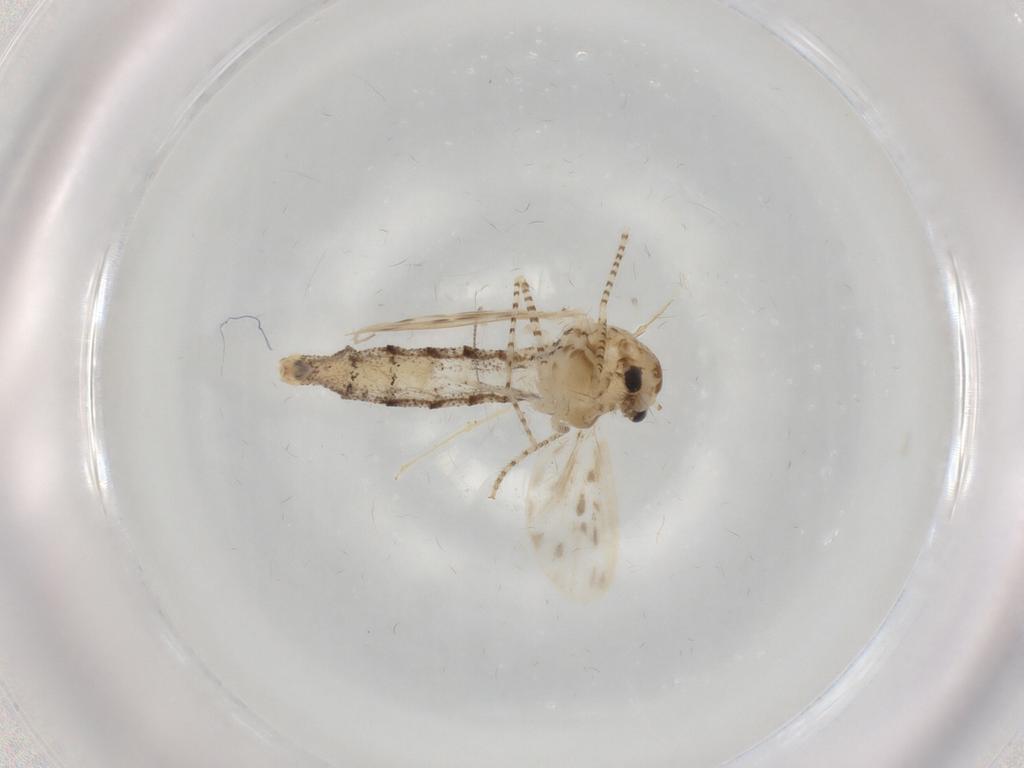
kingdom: Animalia
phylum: Arthropoda
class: Insecta
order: Diptera
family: Chaoboridae
